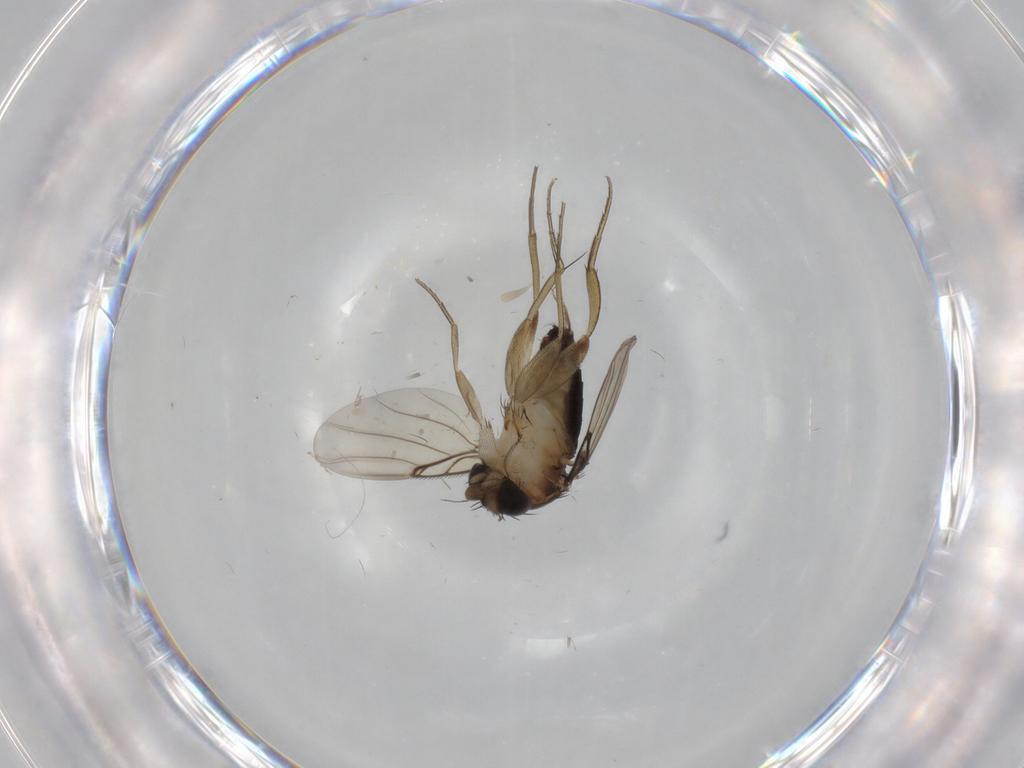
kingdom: Animalia
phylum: Arthropoda
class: Insecta
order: Diptera
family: Phoridae
